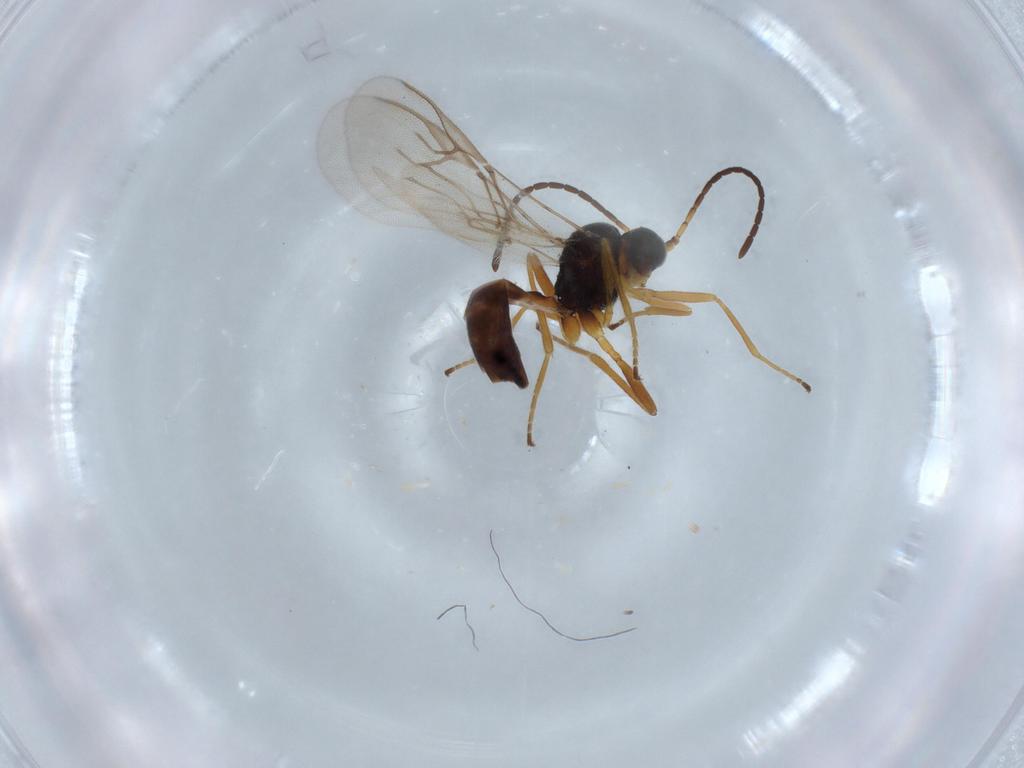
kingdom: Animalia
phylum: Arthropoda
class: Insecta
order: Hymenoptera
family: Braconidae
